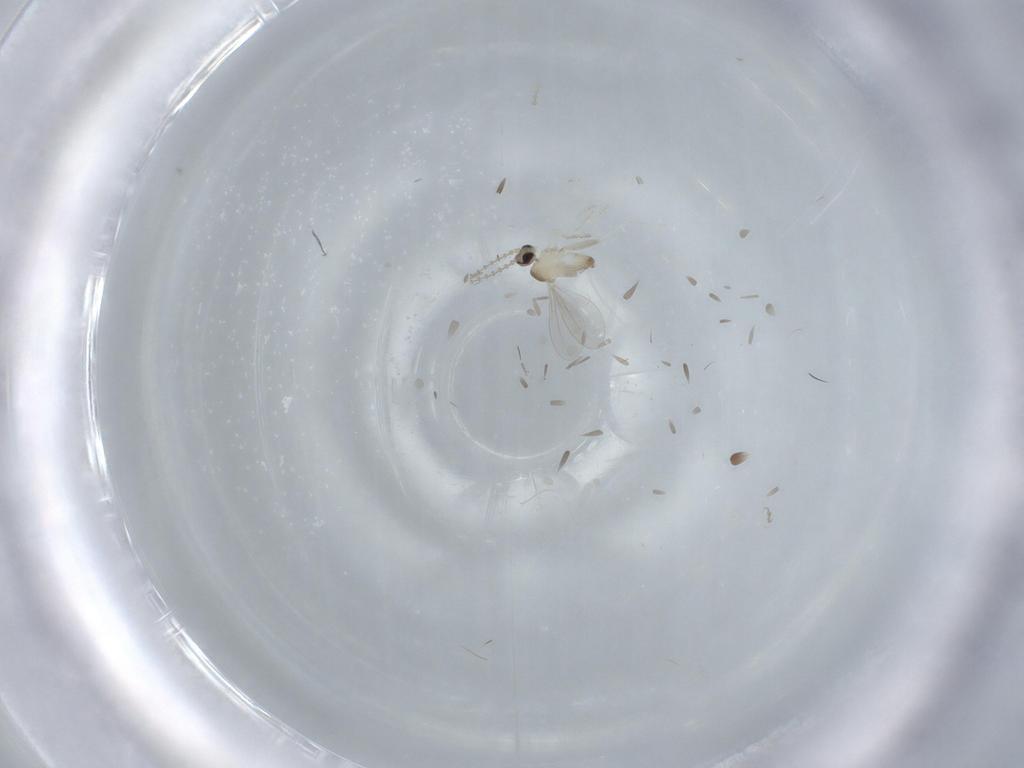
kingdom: Animalia
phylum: Arthropoda
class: Insecta
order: Diptera
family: Cecidomyiidae
